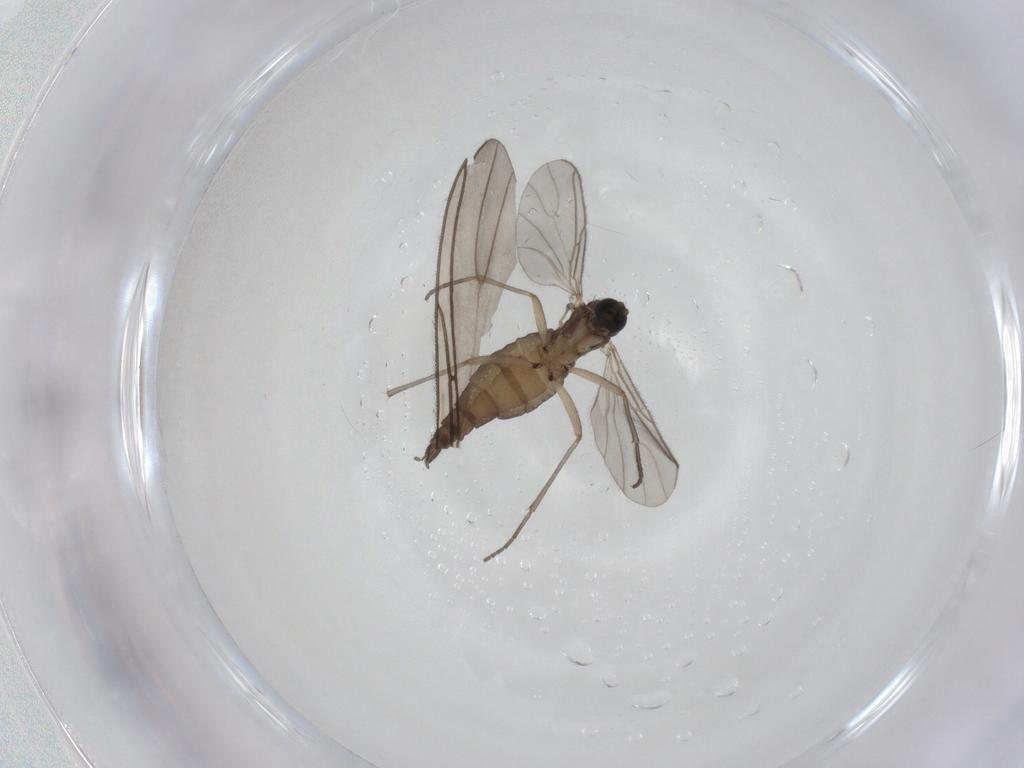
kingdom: Animalia
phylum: Arthropoda
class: Insecta
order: Diptera
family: Sciaridae
